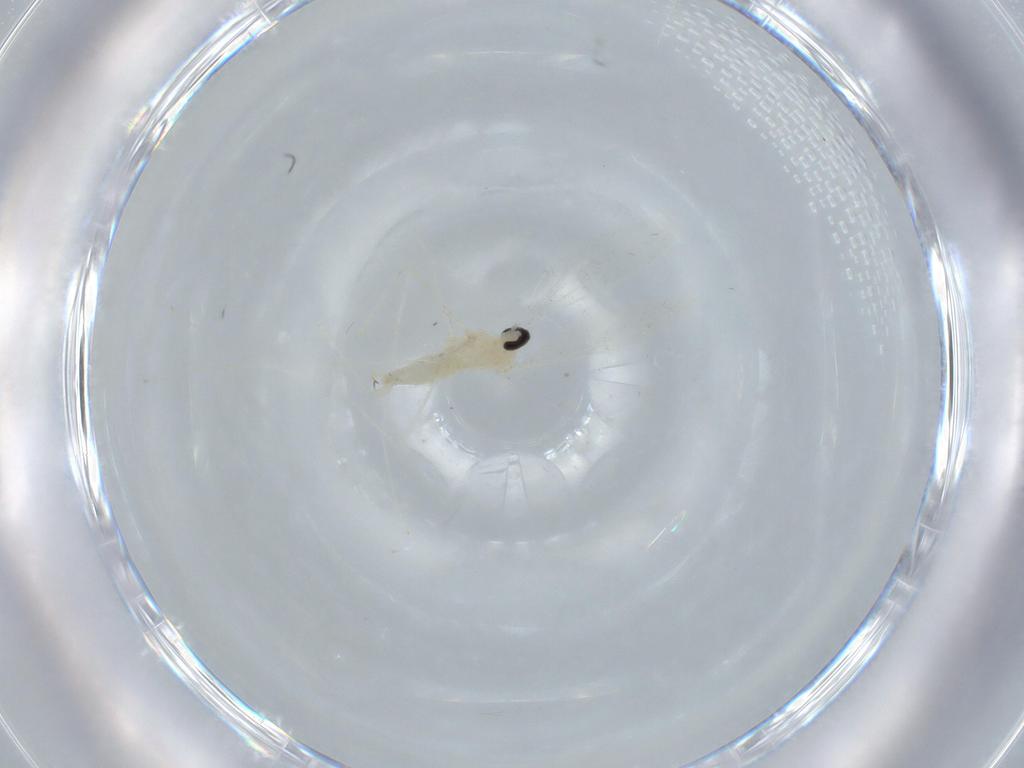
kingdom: Animalia
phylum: Arthropoda
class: Insecta
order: Diptera
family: Cecidomyiidae
